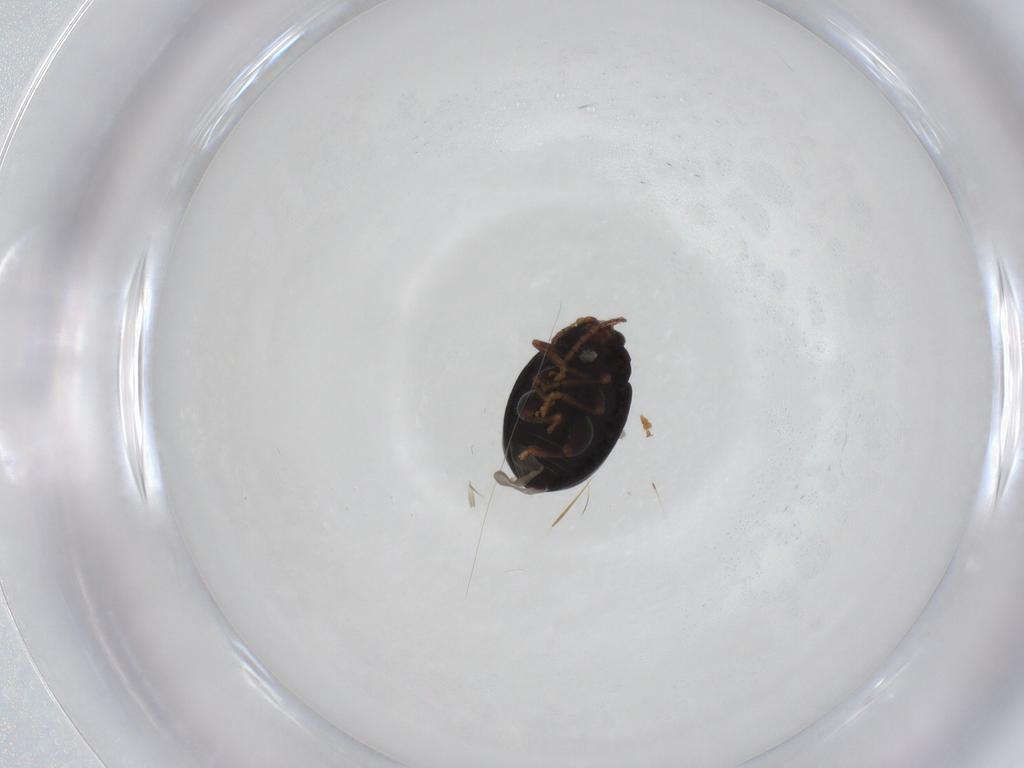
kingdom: Animalia
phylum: Arthropoda
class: Insecta
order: Coleoptera
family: Chrysomelidae
